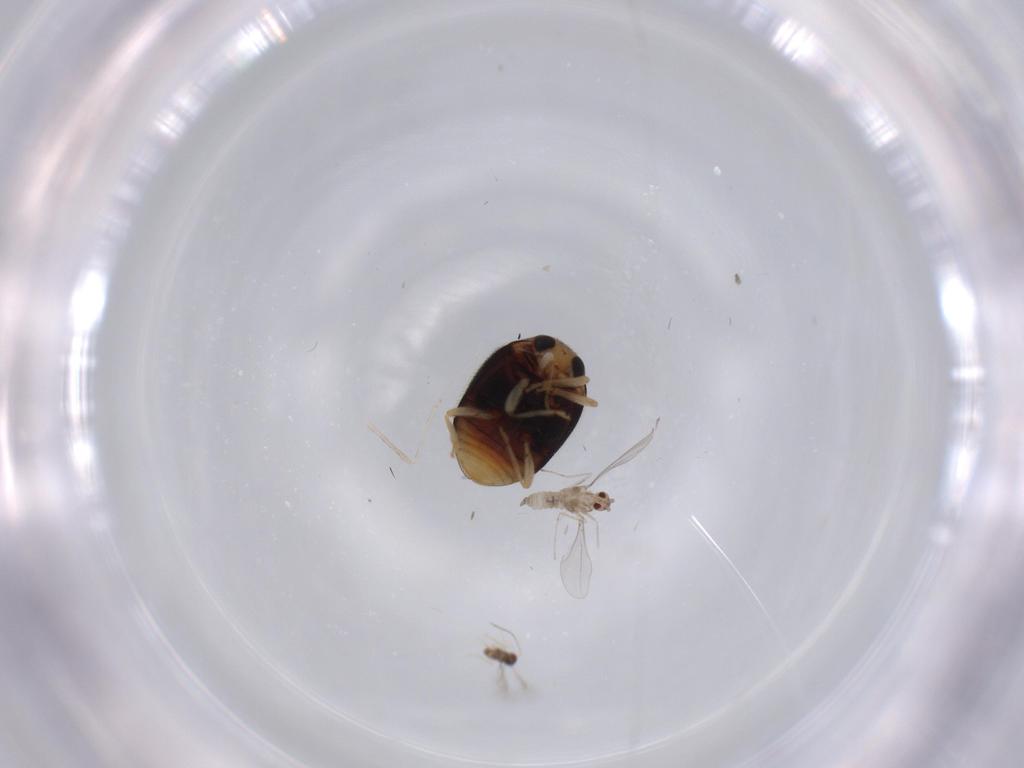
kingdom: Animalia
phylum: Arthropoda
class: Insecta
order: Diptera
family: Cecidomyiidae
